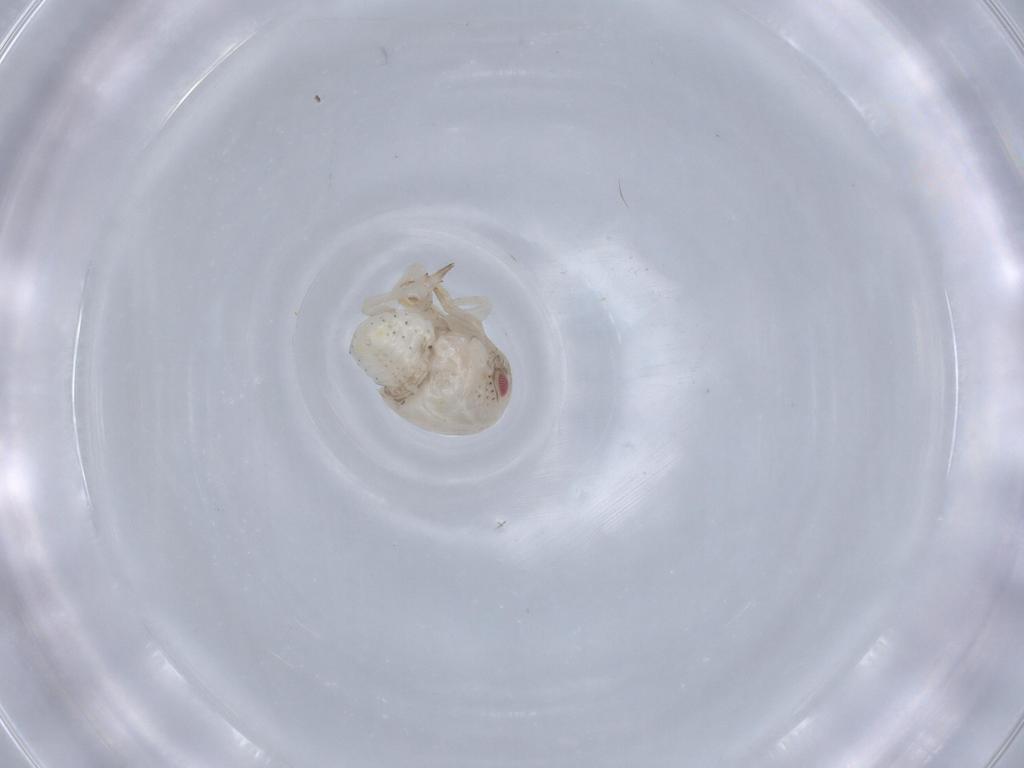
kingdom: Animalia
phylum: Arthropoda
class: Insecta
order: Hemiptera
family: Acanaloniidae
